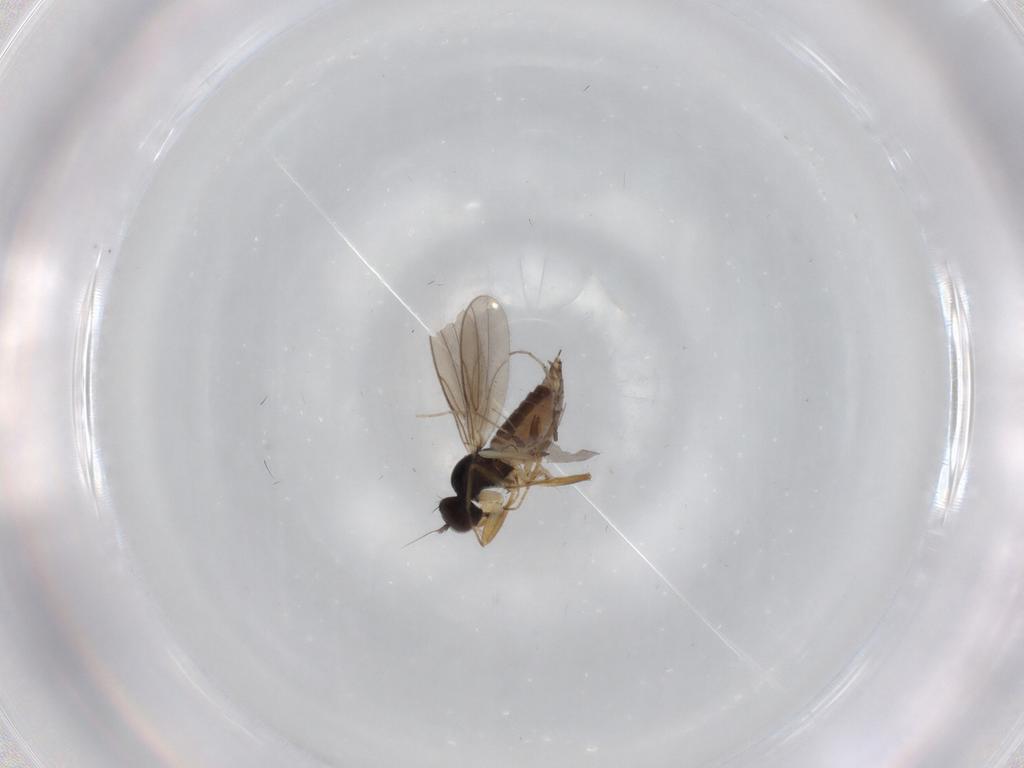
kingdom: Animalia
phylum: Arthropoda
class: Insecta
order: Diptera
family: Hybotidae
